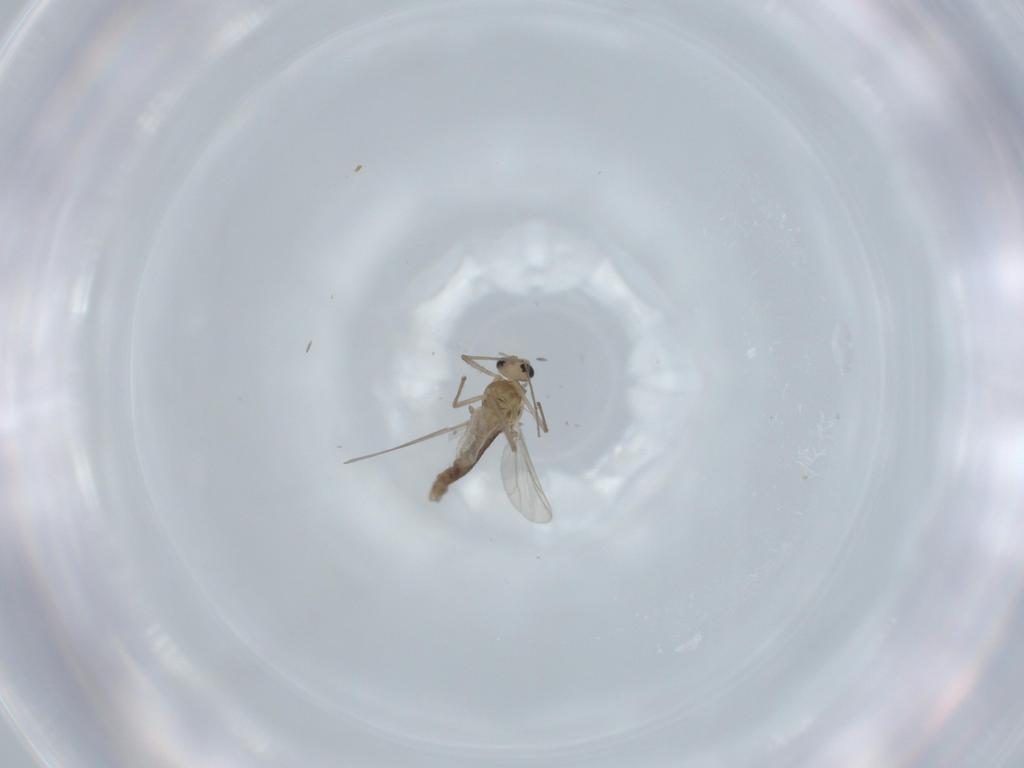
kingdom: Animalia
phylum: Arthropoda
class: Insecta
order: Diptera
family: Chironomidae
